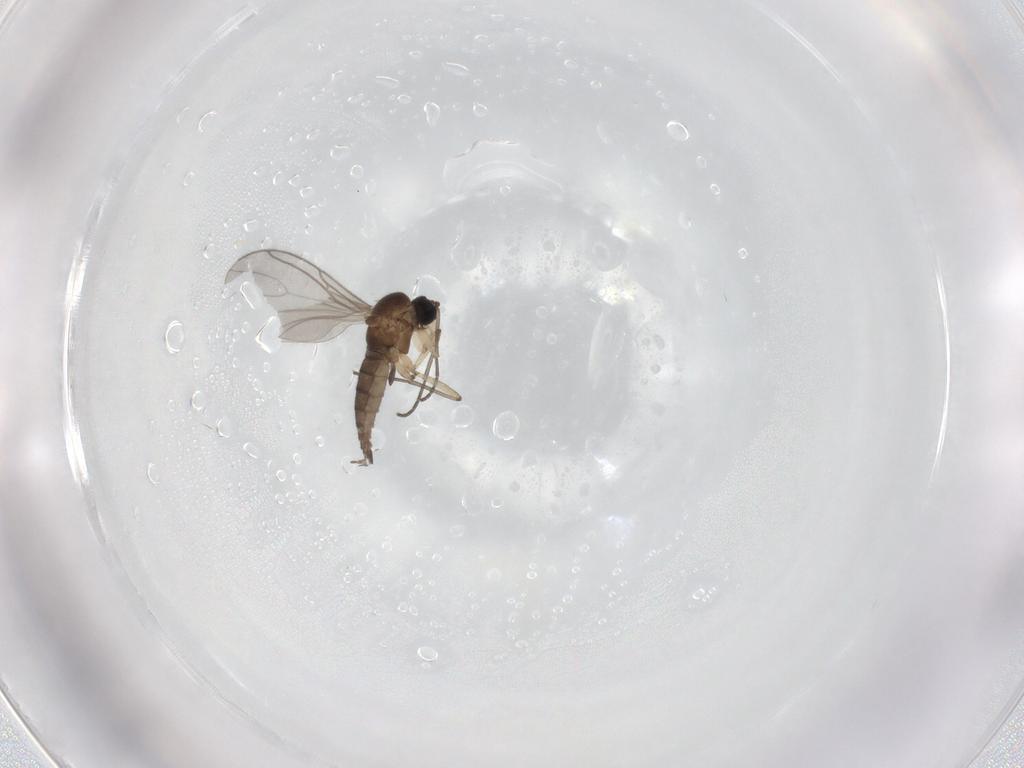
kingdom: Animalia
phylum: Arthropoda
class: Insecta
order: Diptera
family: Sciaridae
